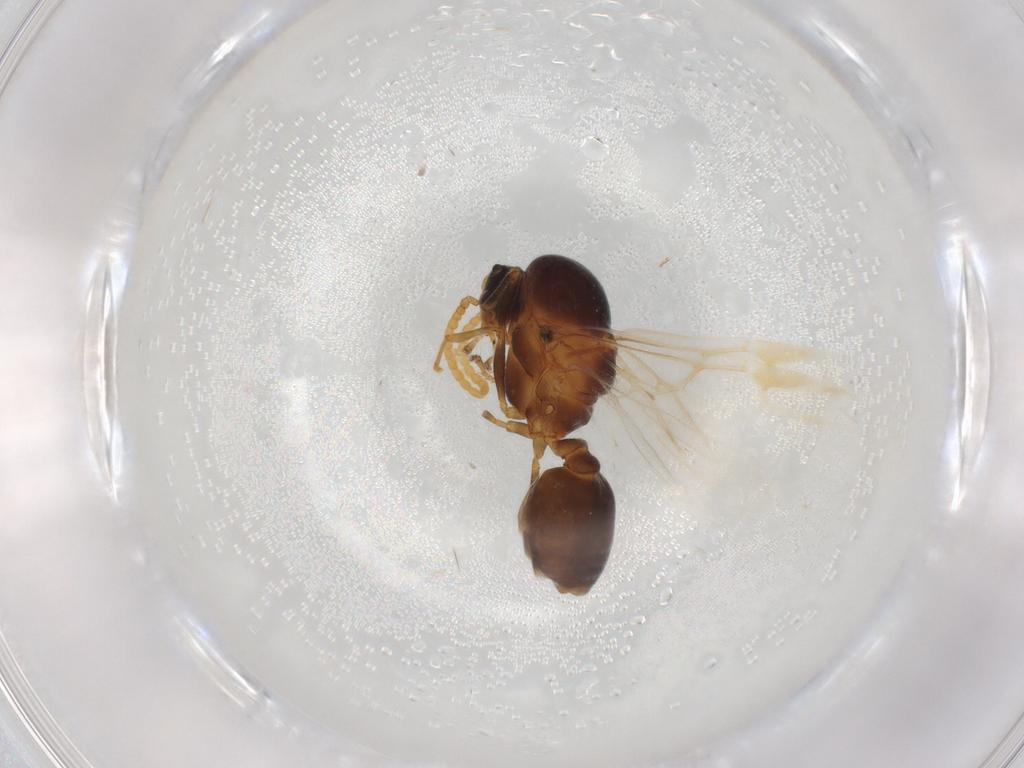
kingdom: Animalia
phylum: Arthropoda
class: Insecta
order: Hymenoptera
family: Formicidae
